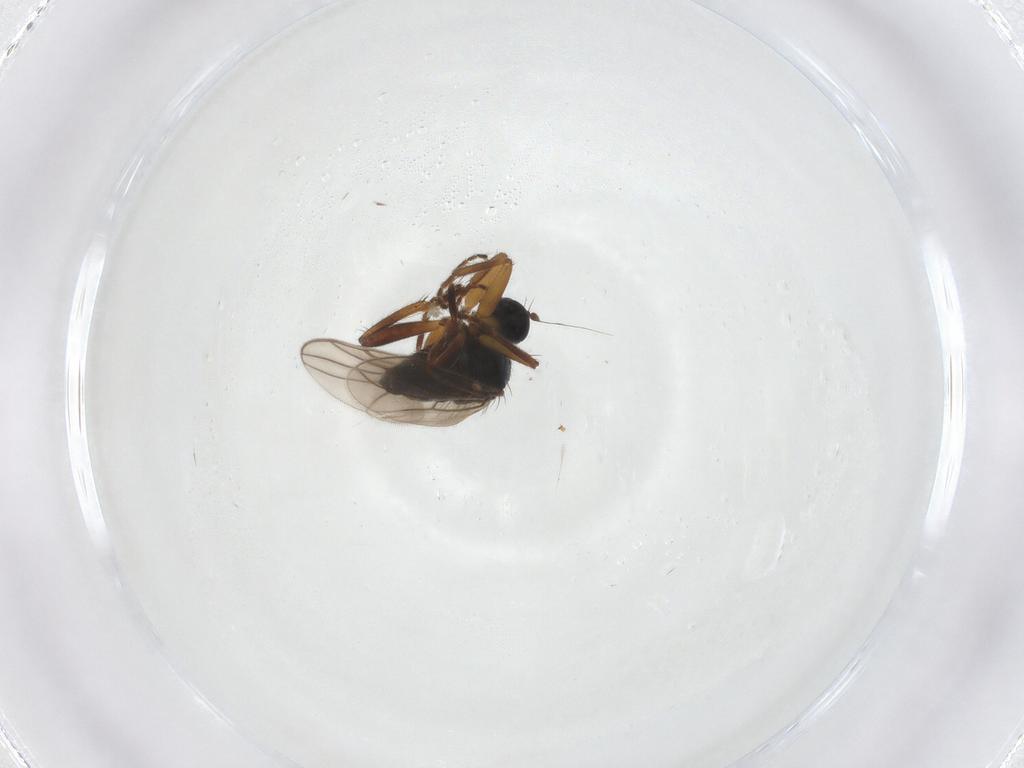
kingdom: Animalia
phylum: Arthropoda
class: Insecta
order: Diptera
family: Hybotidae
